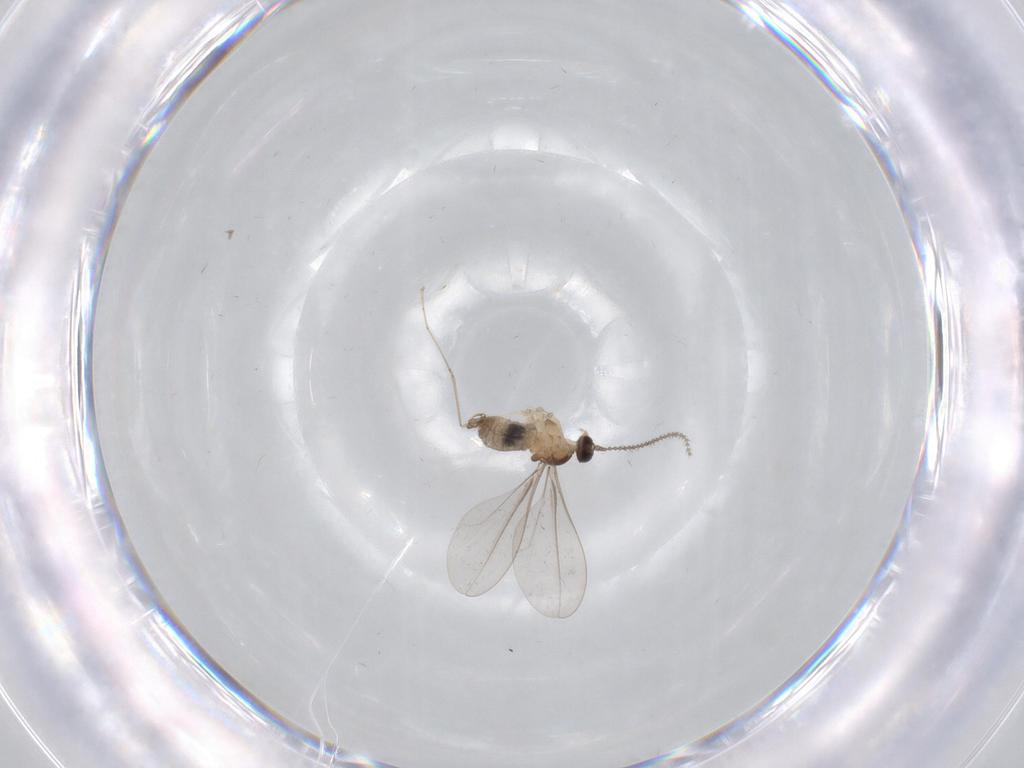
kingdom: Animalia
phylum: Arthropoda
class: Insecta
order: Diptera
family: Cecidomyiidae
